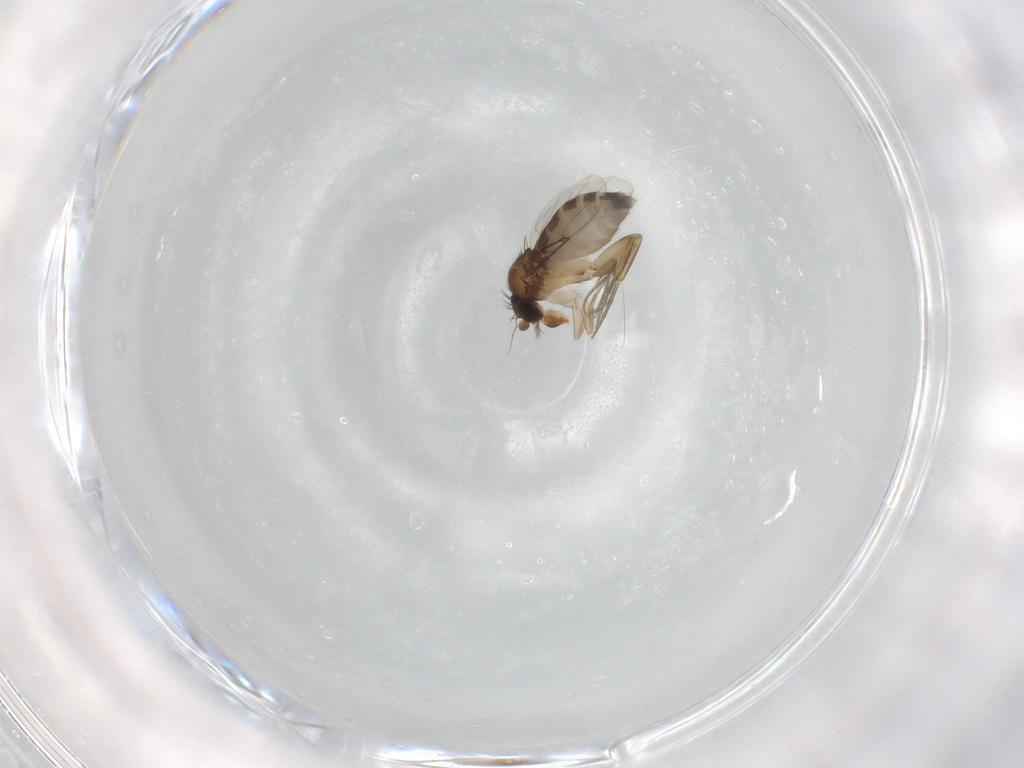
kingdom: Animalia
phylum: Arthropoda
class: Insecta
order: Diptera
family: Phoridae
